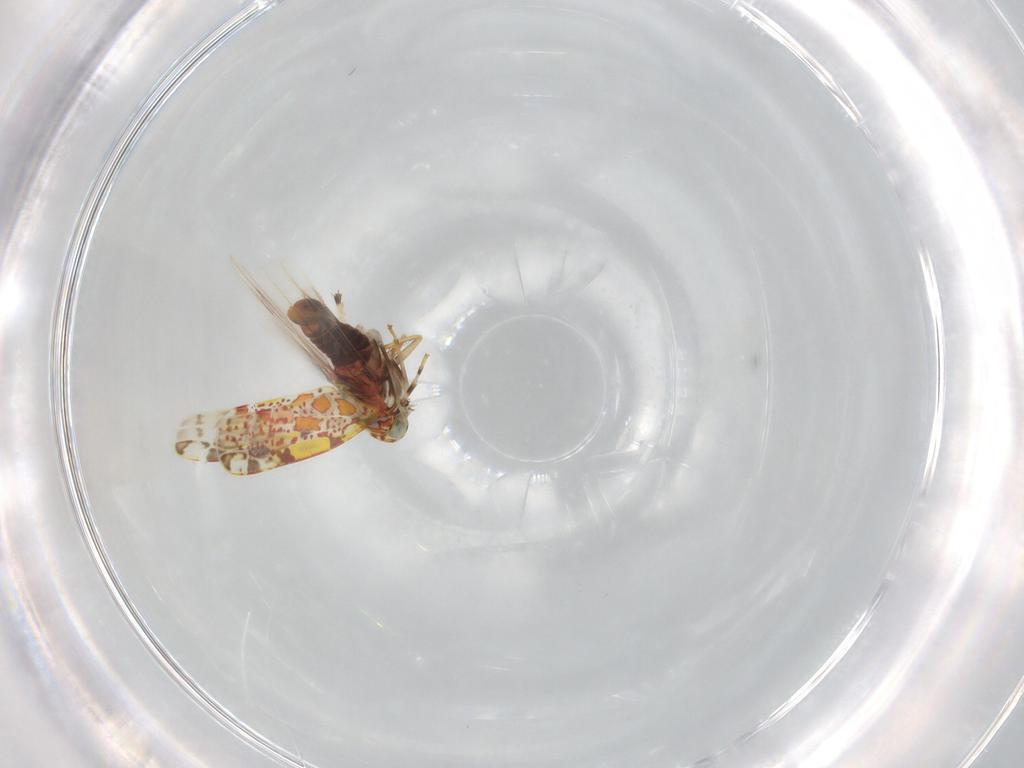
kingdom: Animalia
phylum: Arthropoda
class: Insecta
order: Hemiptera
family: Cicadellidae
